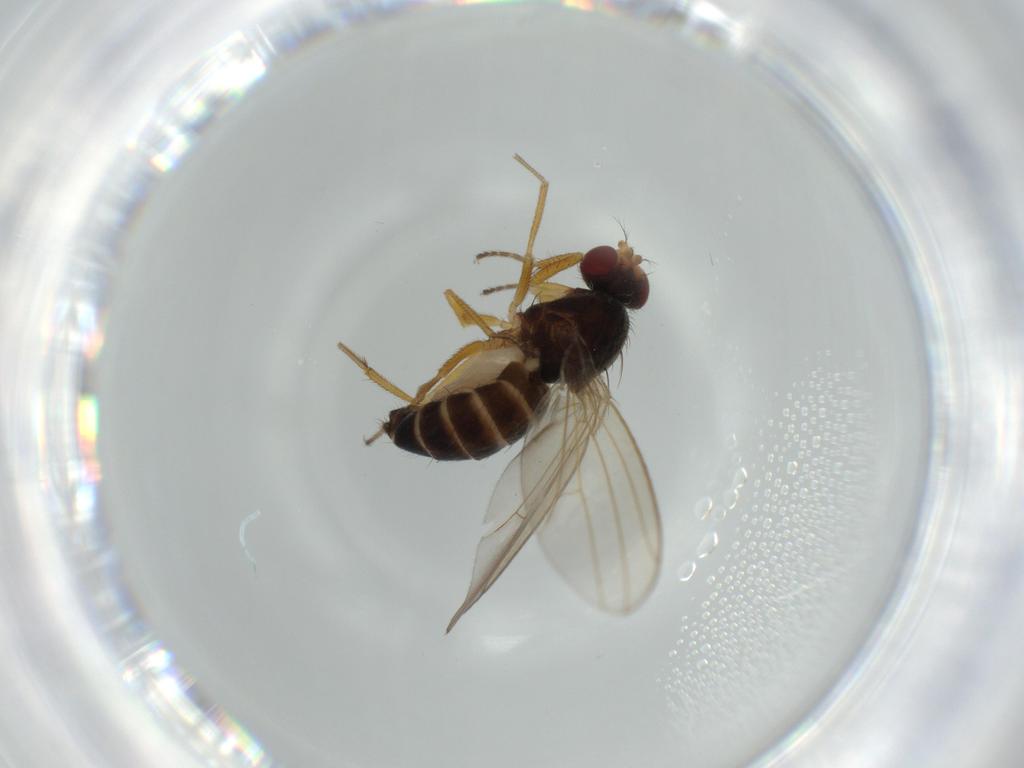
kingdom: Animalia
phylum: Arthropoda
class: Insecta
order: Diptera
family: Drosophilidae
